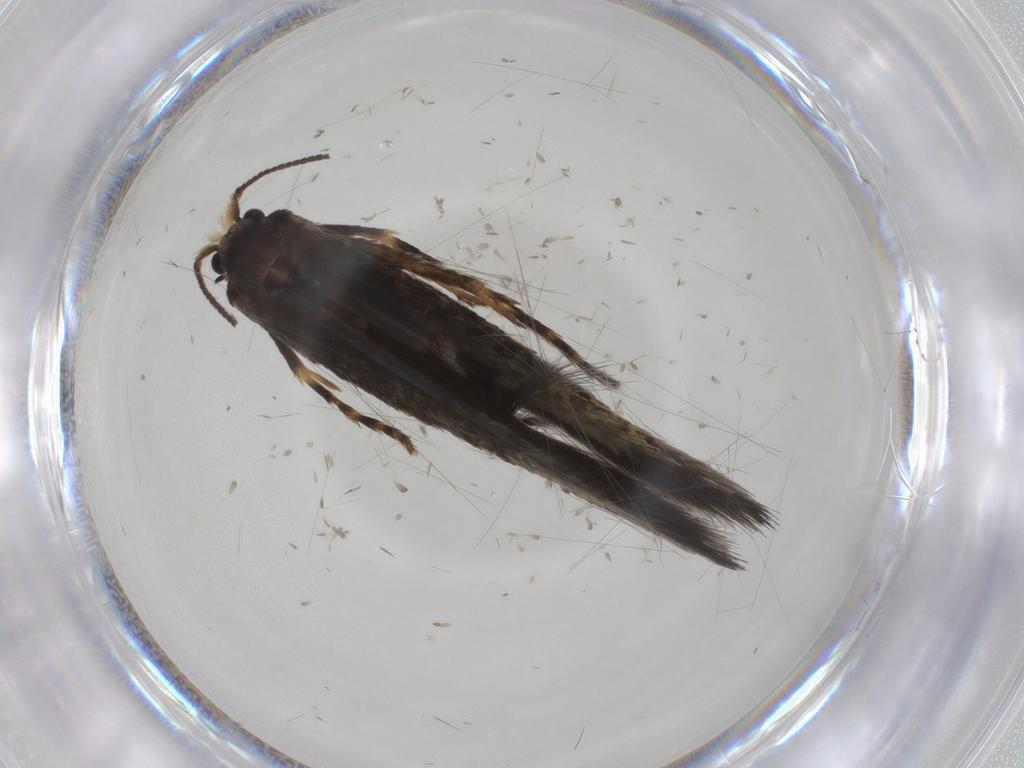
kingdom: Animalia
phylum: Arthropoda
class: Insecta
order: Lepidoptera
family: Nepticulidae
